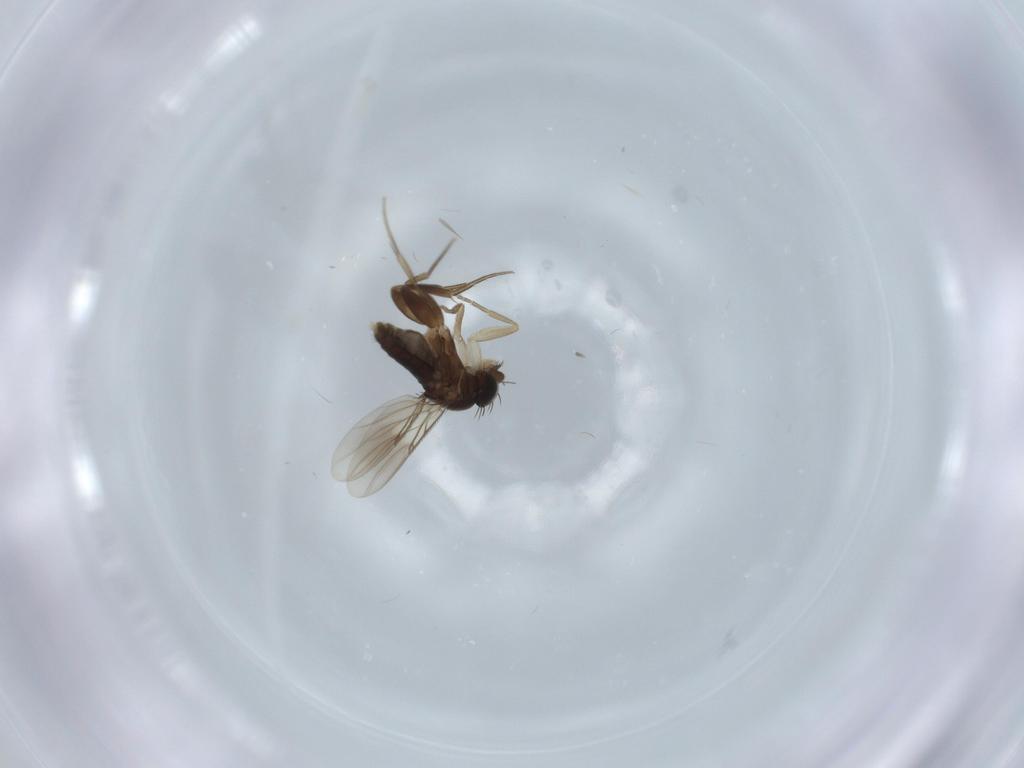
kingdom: Animalia
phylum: Arthropoda
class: Insecta
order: Diptera
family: Phoridae
